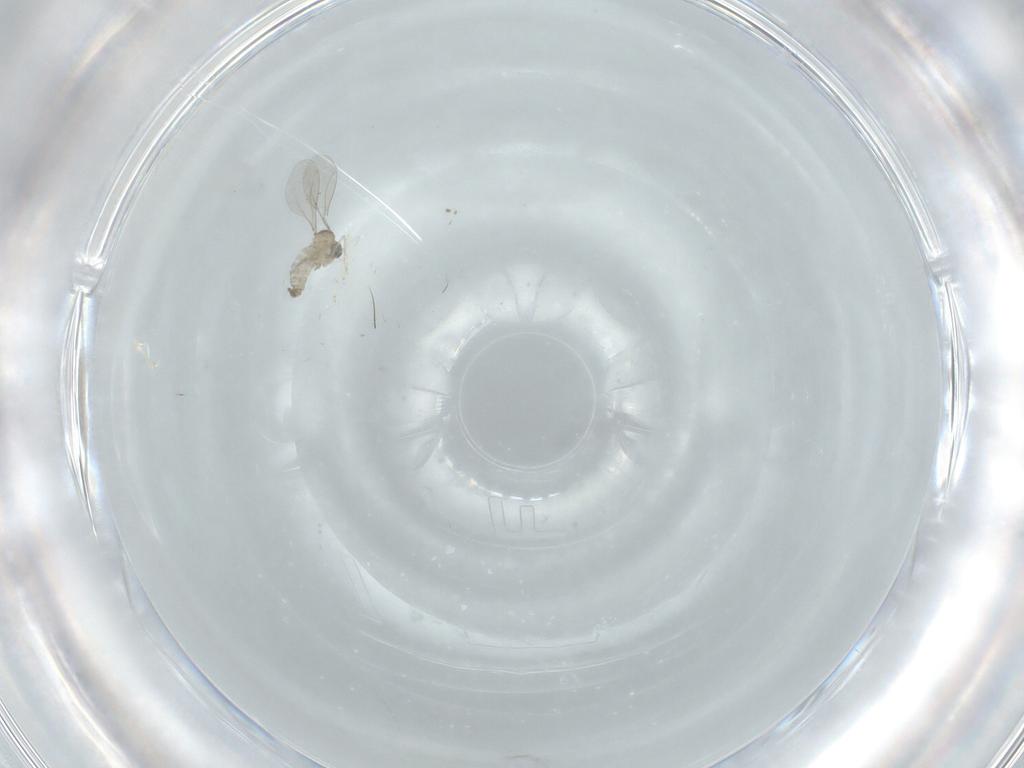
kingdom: Animalia
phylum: Arthropoda
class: Insecta
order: Diptera
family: Cecidomyiidae
